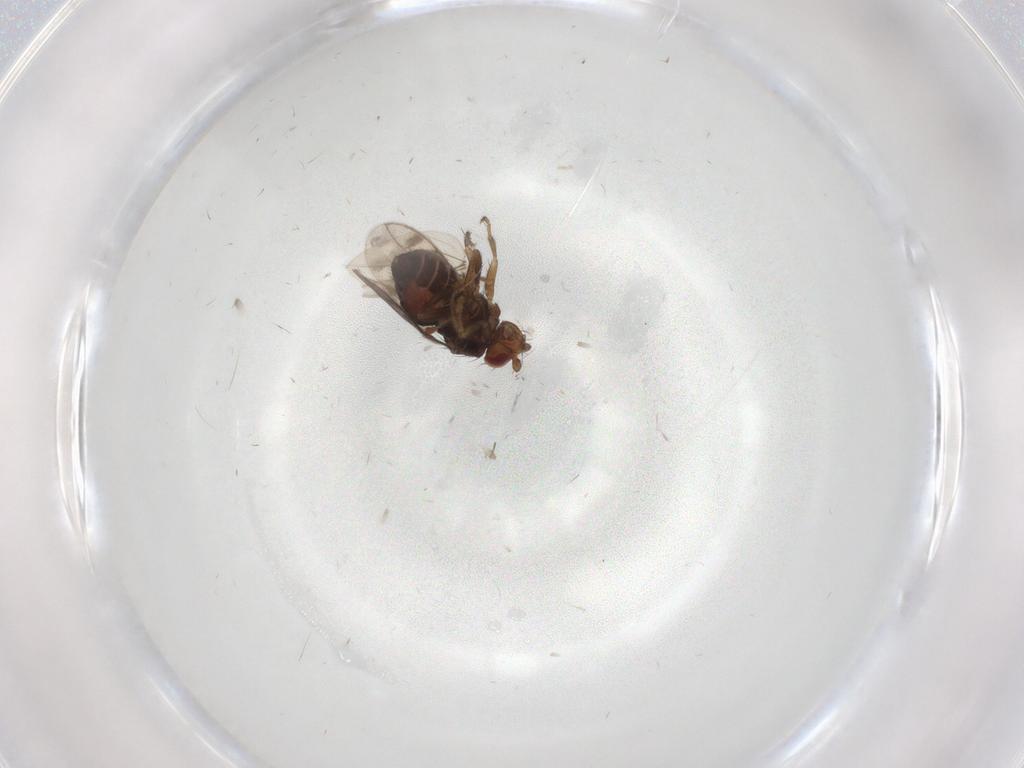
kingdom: Animalia
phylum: Arthropoda
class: Insecta
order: Diptera
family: Sphaeroceridae
